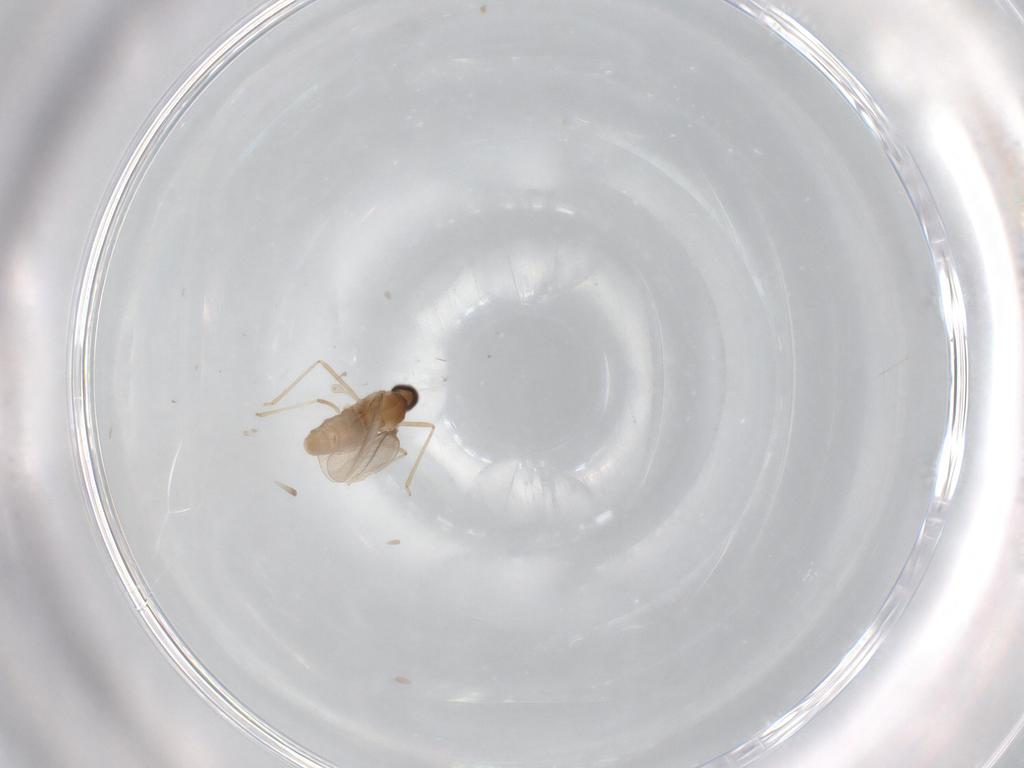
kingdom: Animalia
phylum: Arthropoda
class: Insecta
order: Diptera
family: Cecidomyiidae
